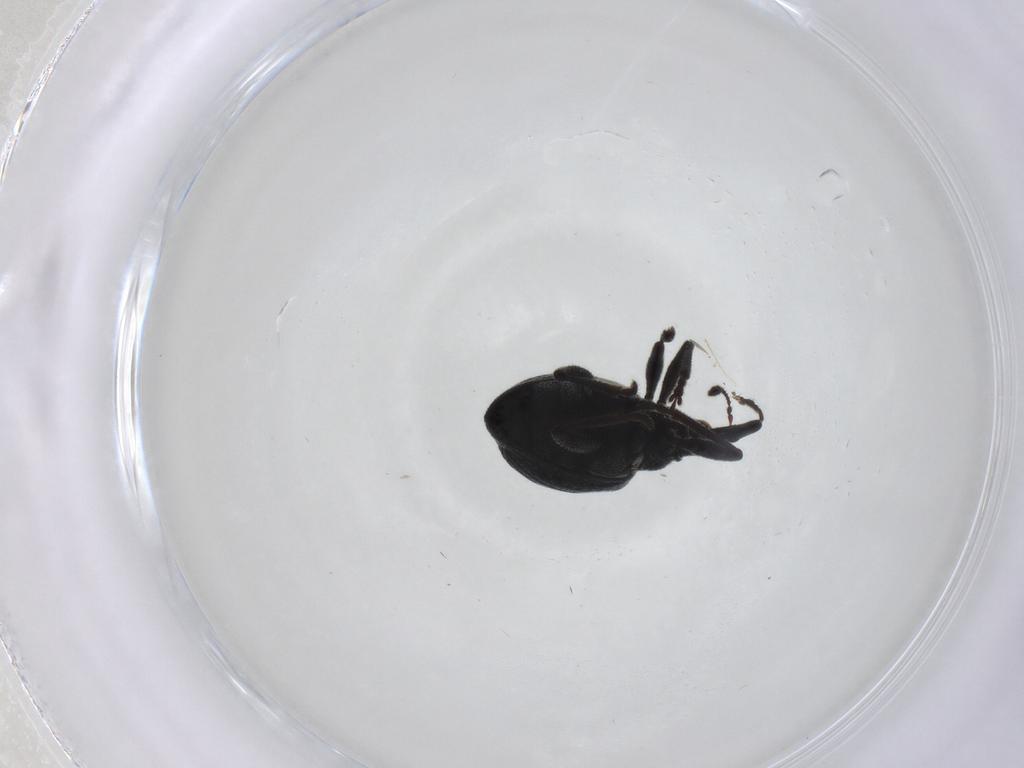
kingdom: Animalia
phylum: Arthropoda
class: Insecta
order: Coleoptera
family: Brentidae
